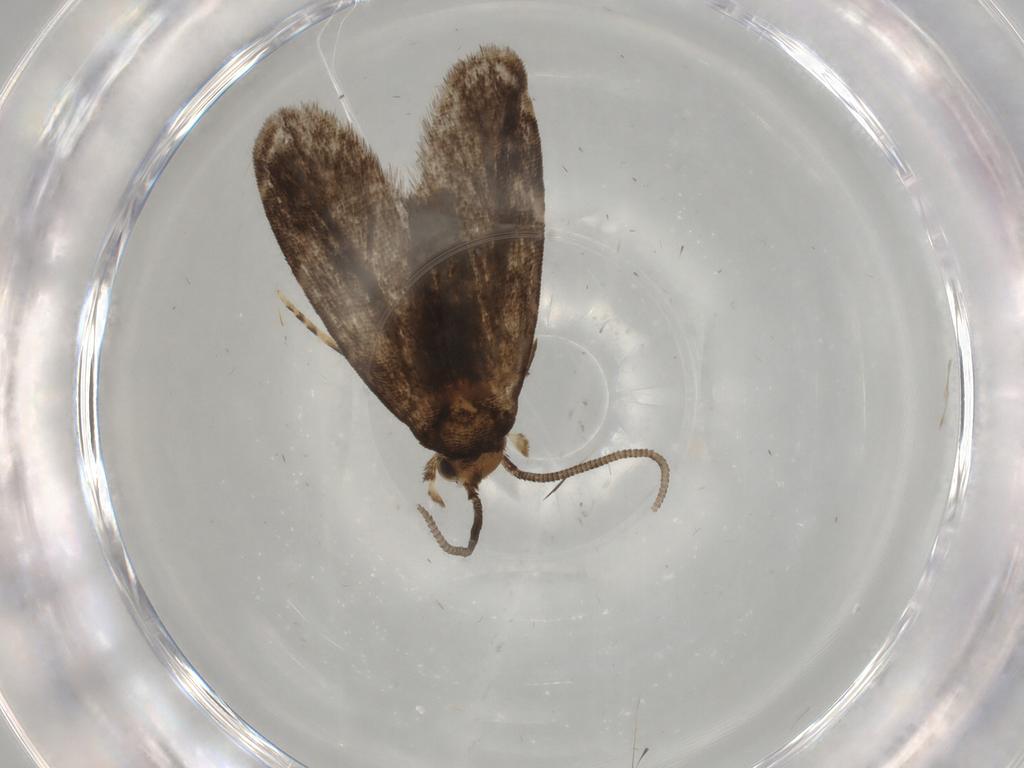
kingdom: Animalia
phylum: Arthropoda
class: Insecta
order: Lepidoptera
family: Dryadaulidae
